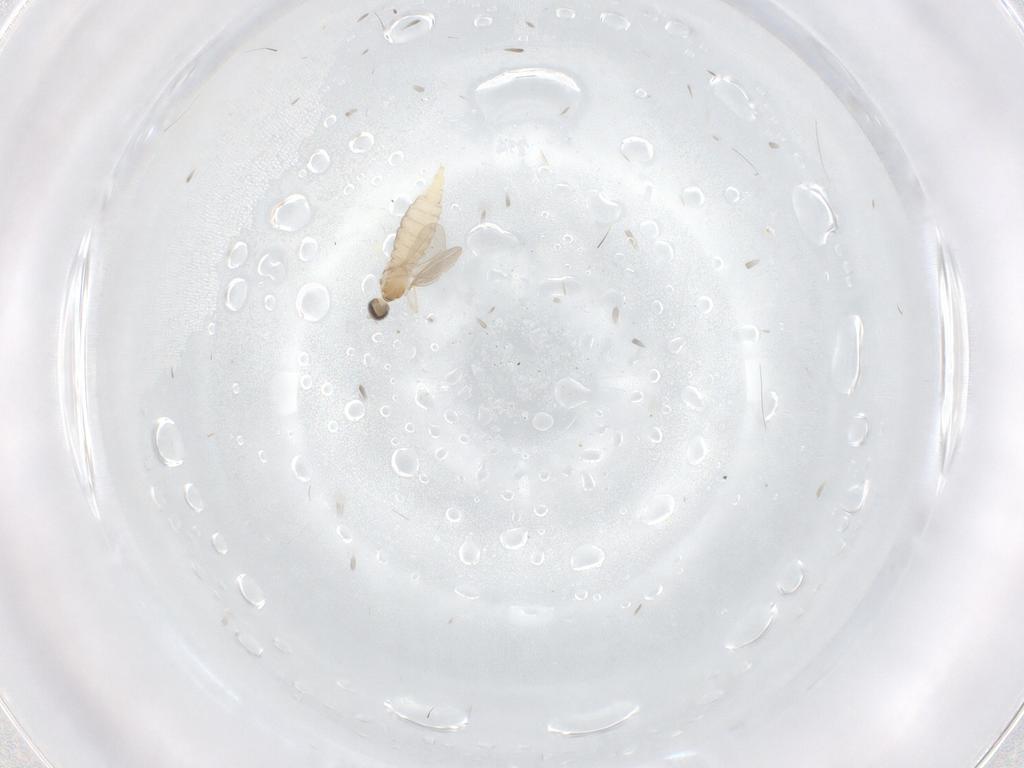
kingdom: Animalia
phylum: Arthropoda
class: Insecta
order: Diptera
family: Cecidomyiidae
